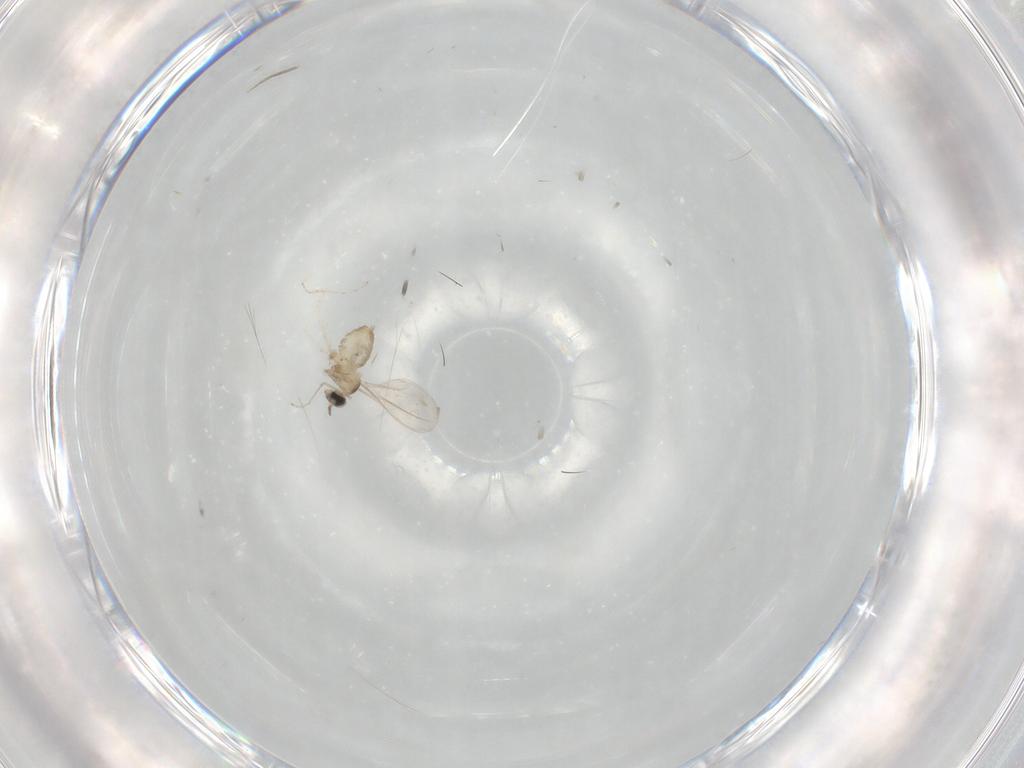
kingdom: Animalia
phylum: Arthropoda
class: Insecta
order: Diptera
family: Cecidomyiidae
